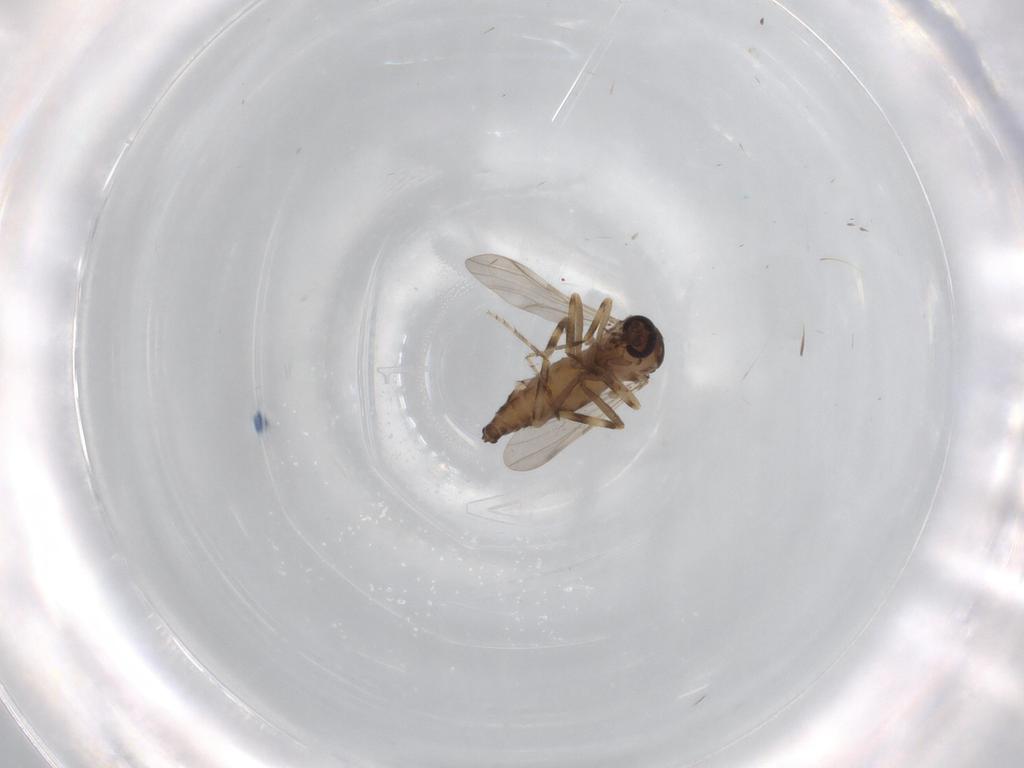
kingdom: Animalia
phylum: Arthropoda
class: Insecta
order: Diptera
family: Ceratopogonidae
